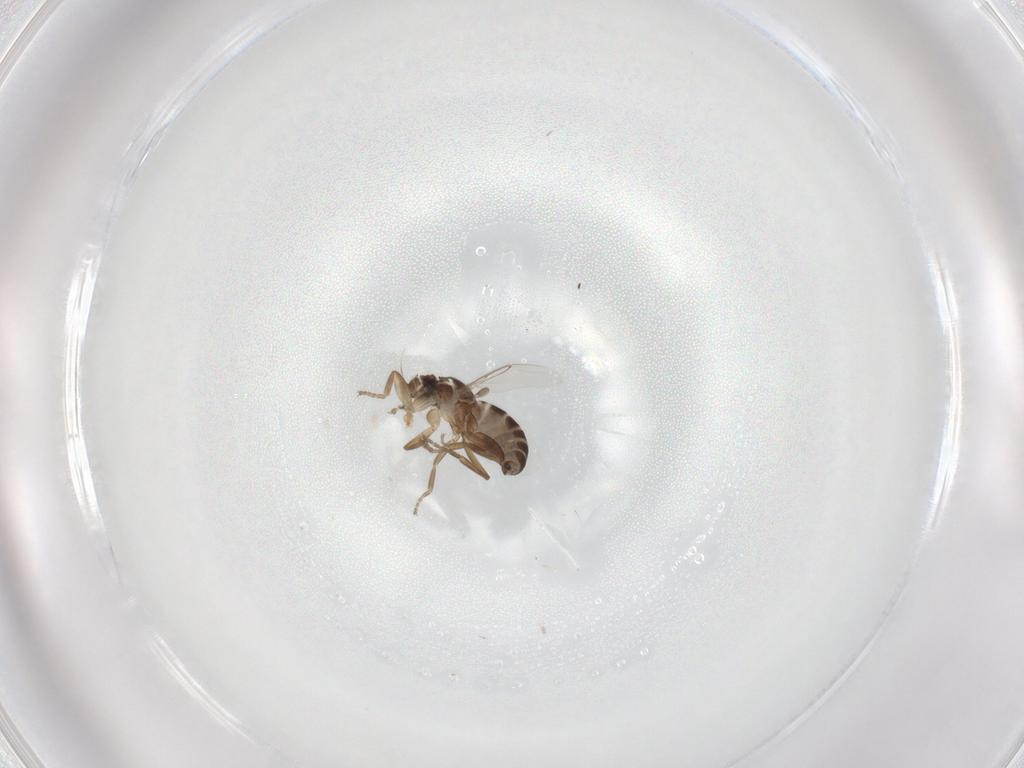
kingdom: Animalia
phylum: Arthropoda
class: Insecta
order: Diptera
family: Phoridae
